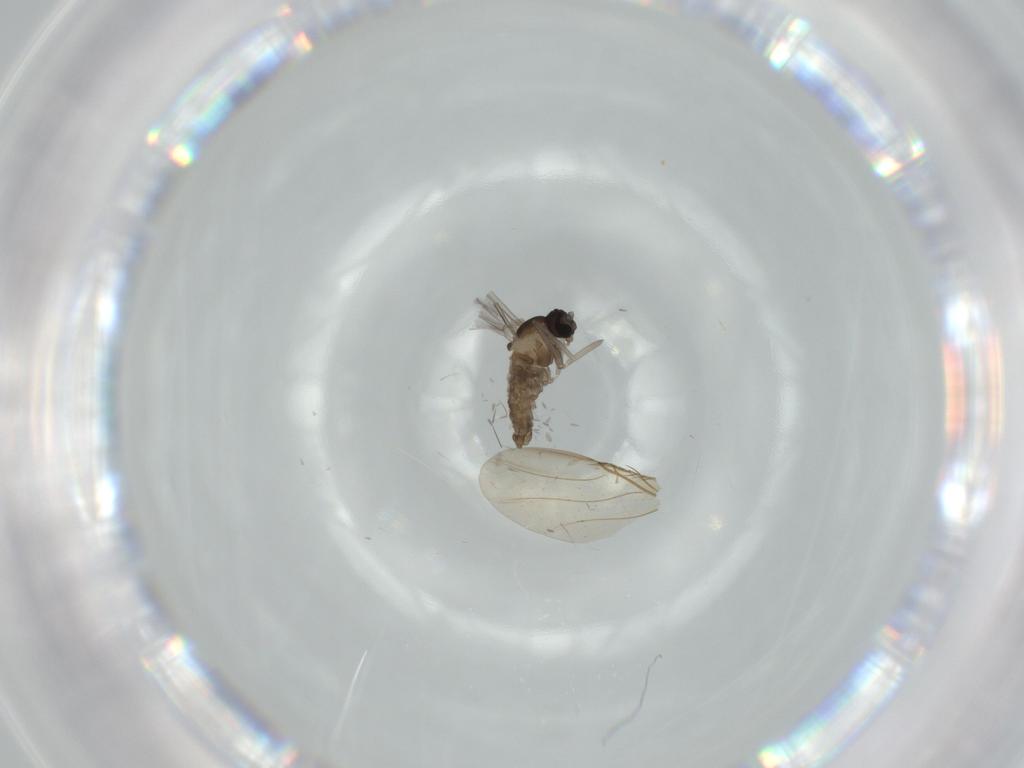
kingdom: Animalia
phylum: Arthropoda
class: Insecta
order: Diptera
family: Cecidomyiidae
